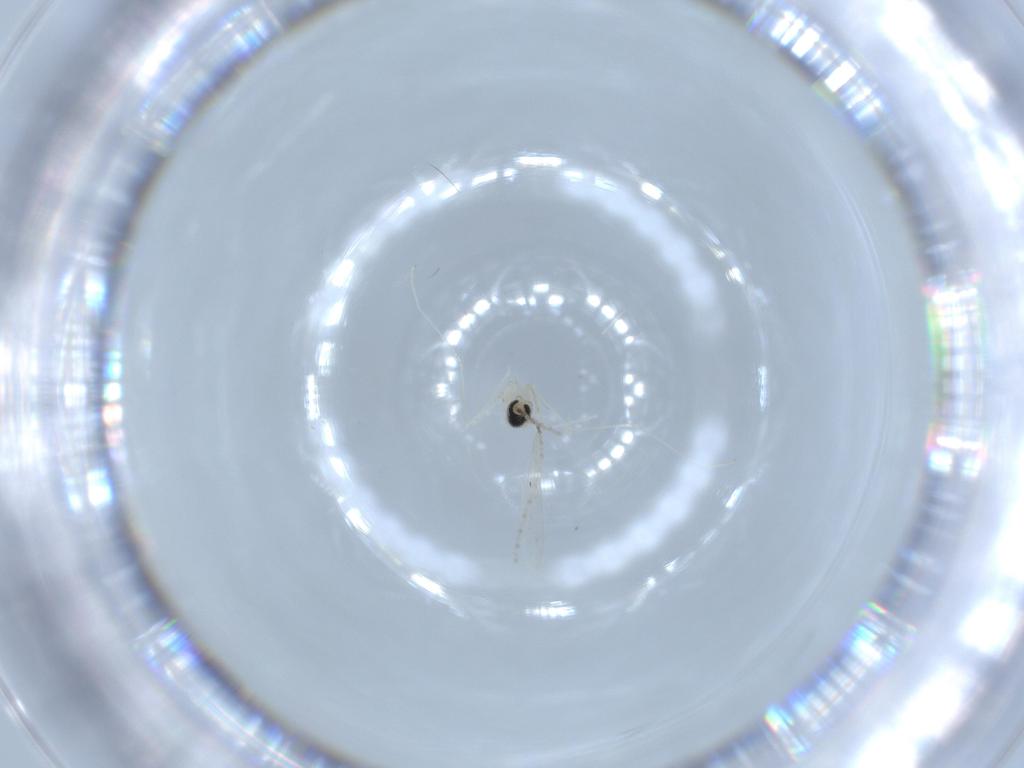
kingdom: Animalia
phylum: Arthropoda
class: Insecta
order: Diptera
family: Cecidomyiidae
